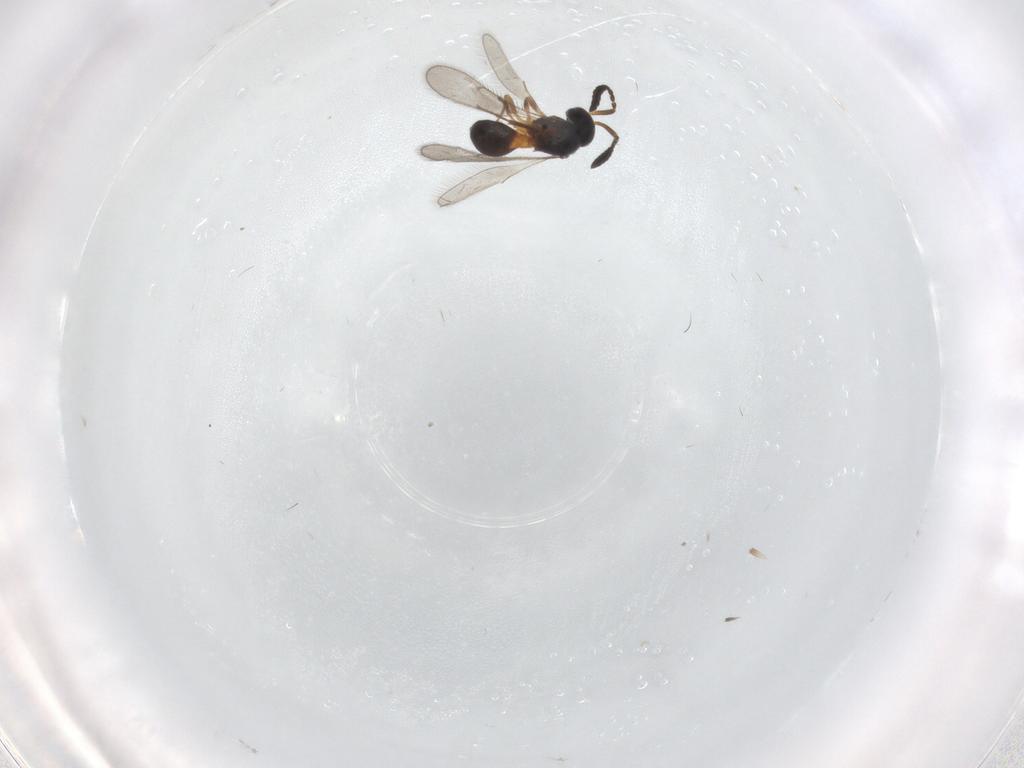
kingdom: Animalia
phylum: Arthropoda
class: Insecta
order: Hymenoptera
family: Scelionidae
